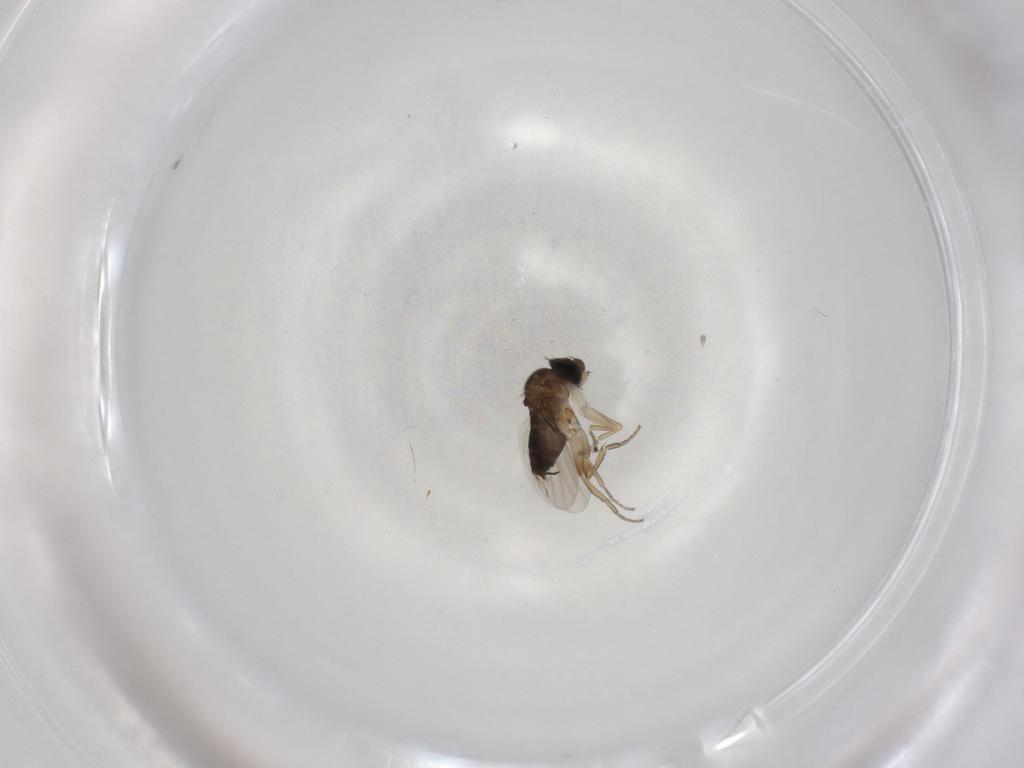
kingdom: Animalia
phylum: Arthropoda
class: Insecta
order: Diptera
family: Phoridae
